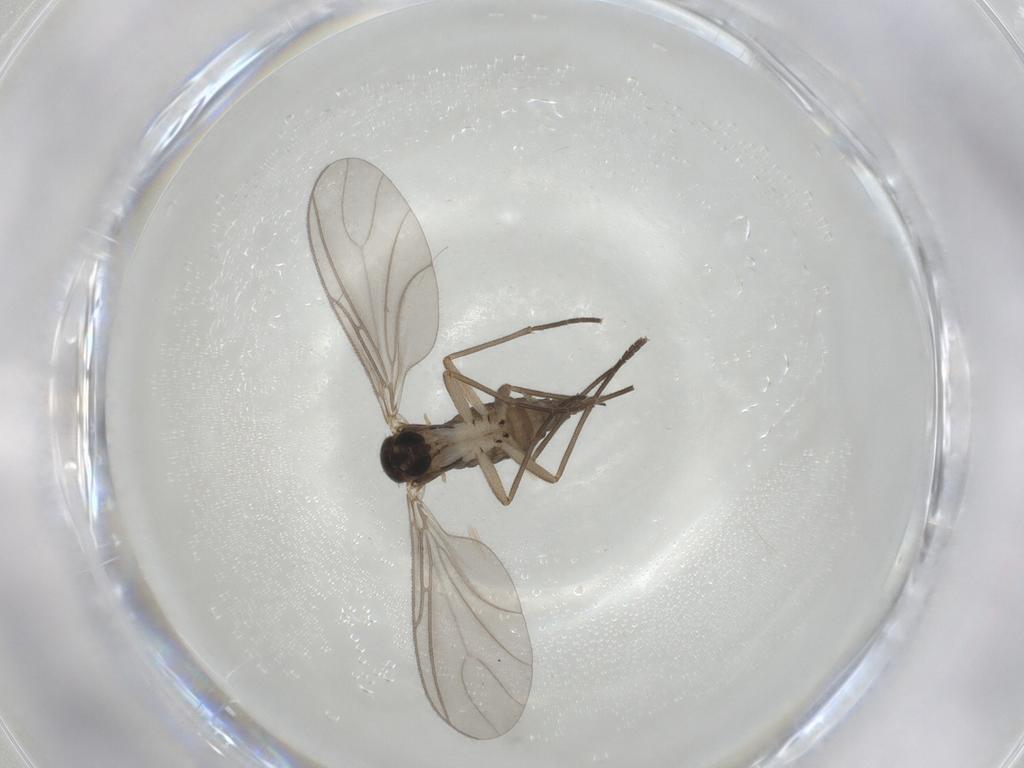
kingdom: Animalia
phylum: Arthropoda
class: Insecta
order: Diptera
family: Sciaridae
